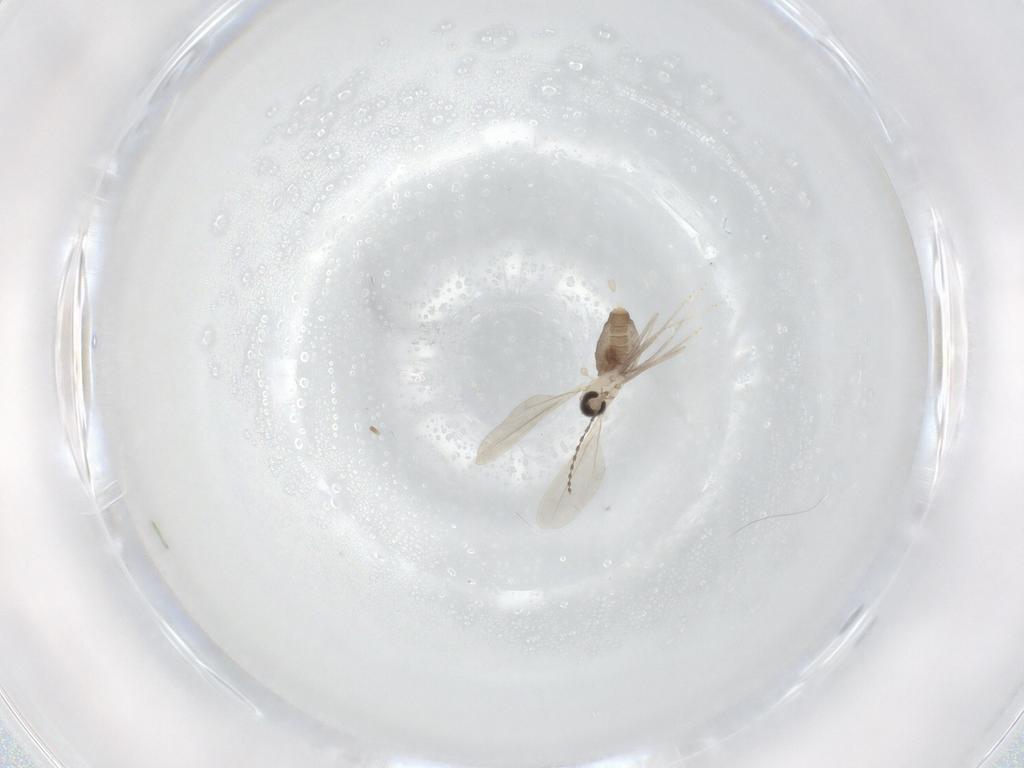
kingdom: Animalia
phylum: Arthropoda
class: Insecta
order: Diptera
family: Cecidomyiidae
